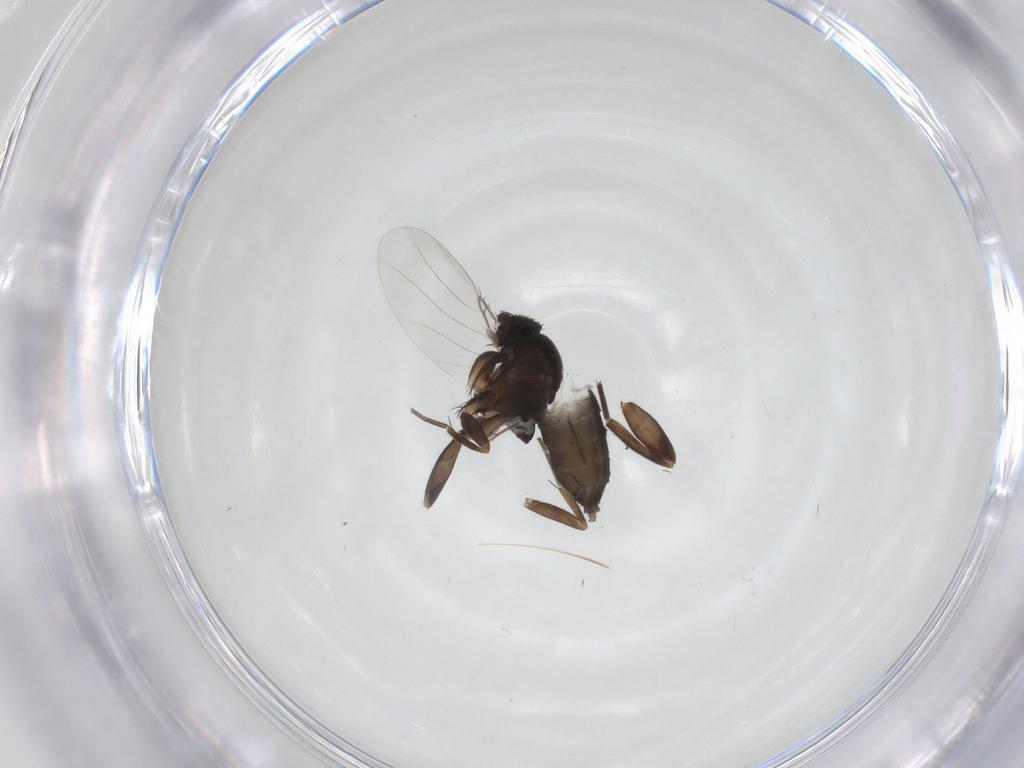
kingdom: Animalia
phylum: Arthropoda
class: Insecta
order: Diptera
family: Phoridae
